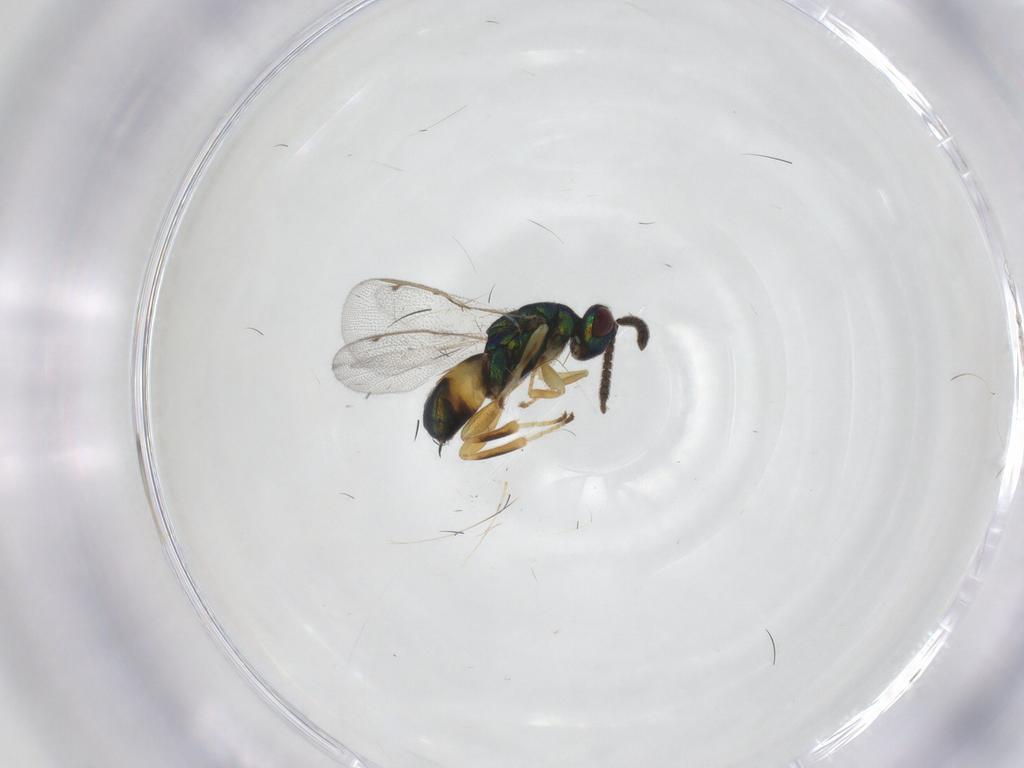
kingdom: Animalia
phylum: Arthropoda
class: Insecta
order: Hymenoptera
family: Torymidae
